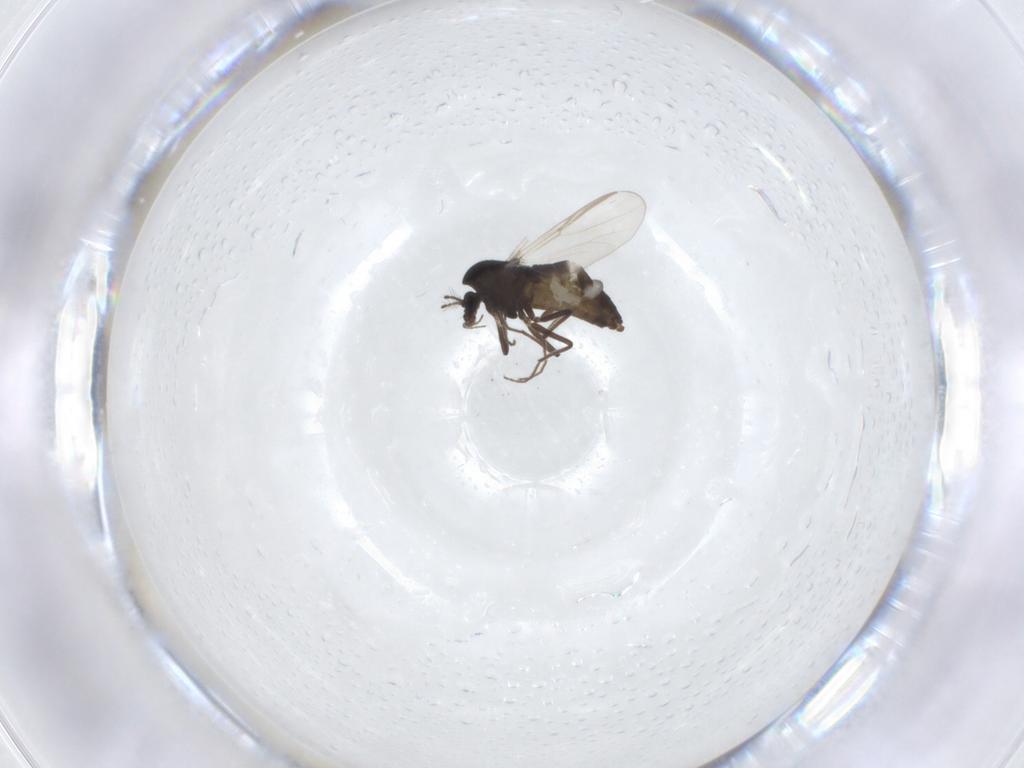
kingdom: Animalia
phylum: Arthropoda
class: Insecta
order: Diptera
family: Chironomidae
